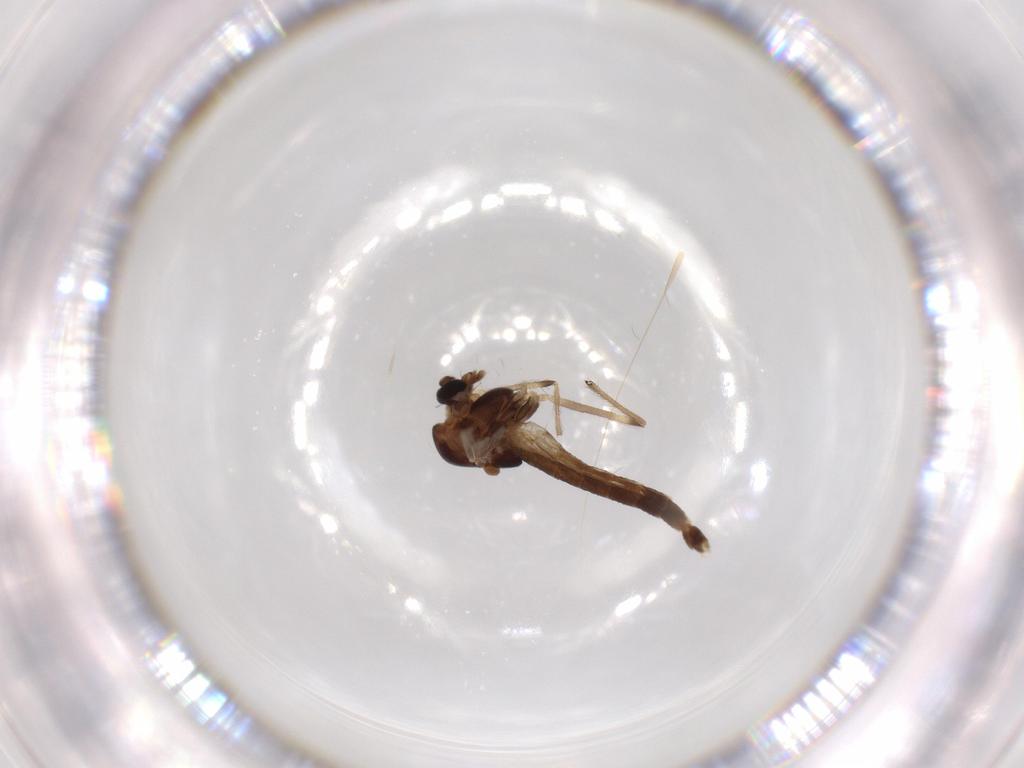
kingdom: Animalia
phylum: Arthropoda
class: Insecta
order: Diptera
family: Chironomidae
